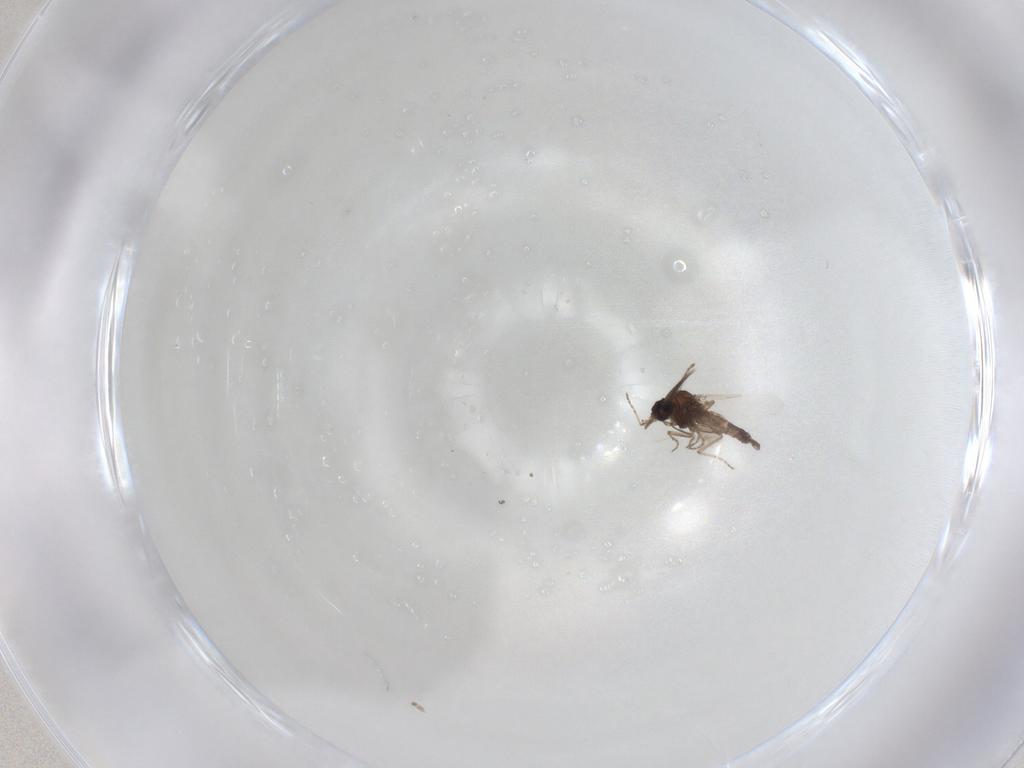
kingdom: Animalia
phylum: Arthropoda
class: Insecta
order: Diptera
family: Ceratopogonidae
